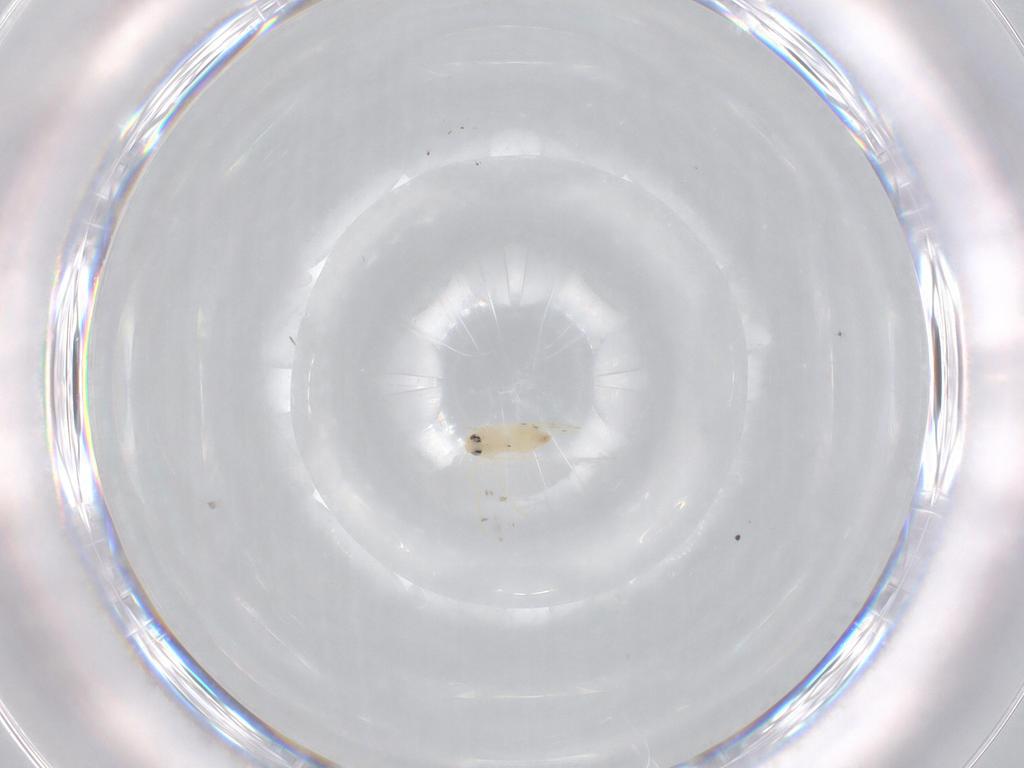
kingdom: Animalia
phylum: Arthropoda
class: Insecta
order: Hemiptera
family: Aleyrodidae
